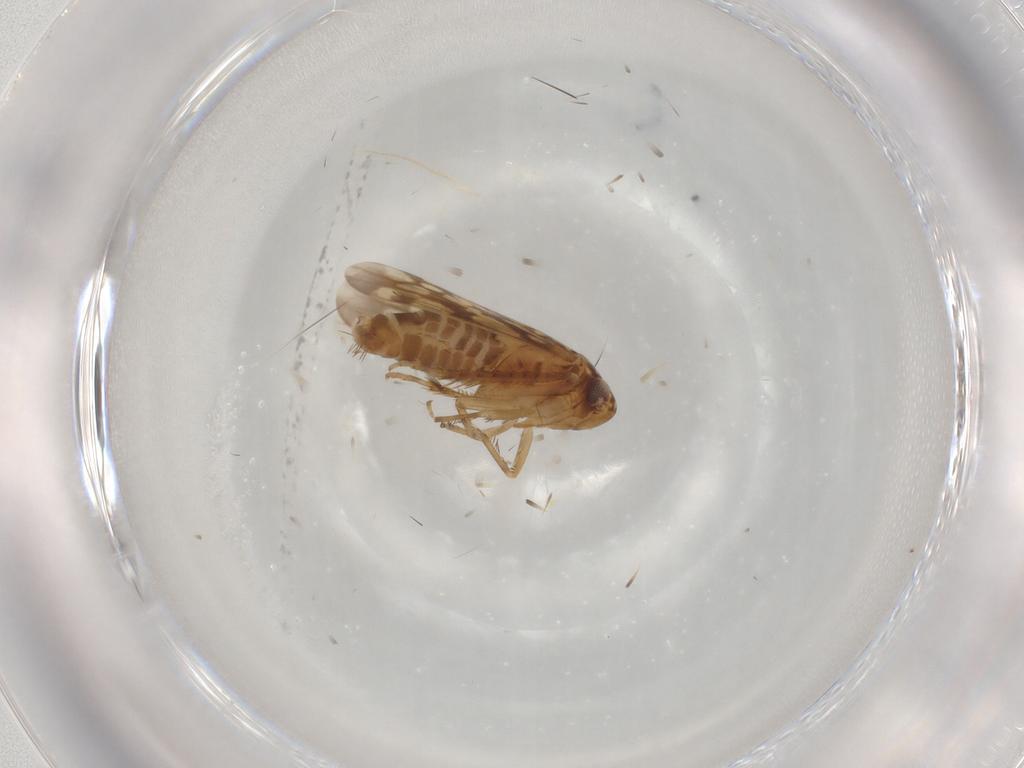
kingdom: Animalia
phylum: Arthropoda
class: Insecta
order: Hemiptera
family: Cicadellidae
